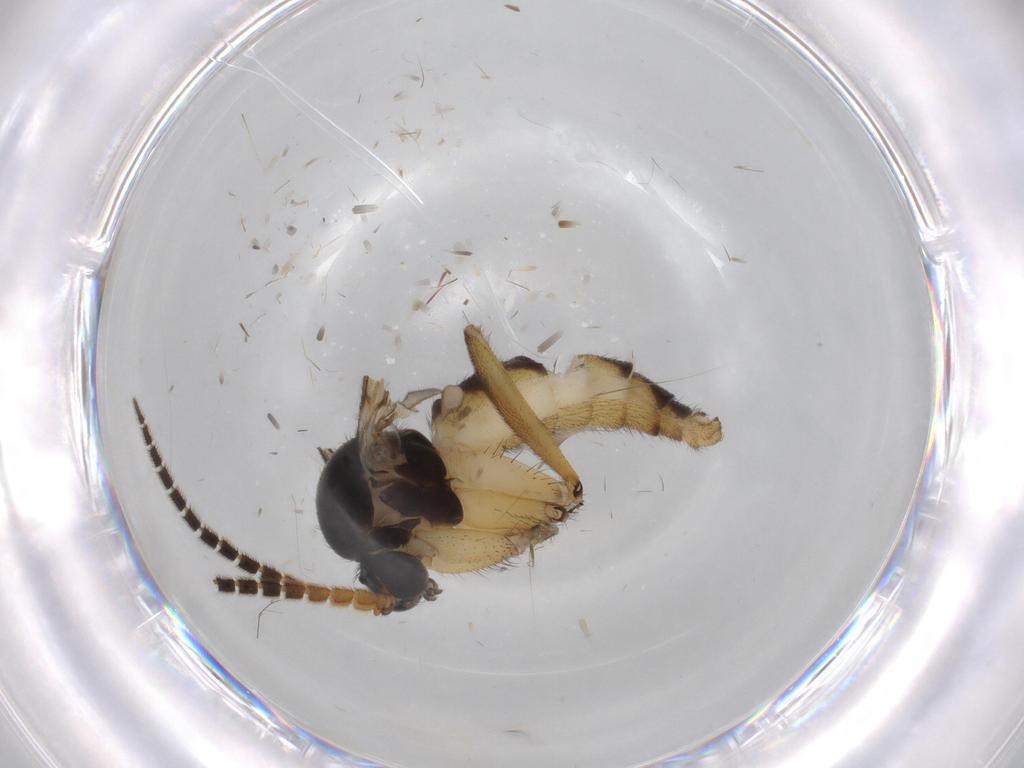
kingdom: Animalia
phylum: Arthropoda
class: Insecta
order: Diptera
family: Mycetophilidae
